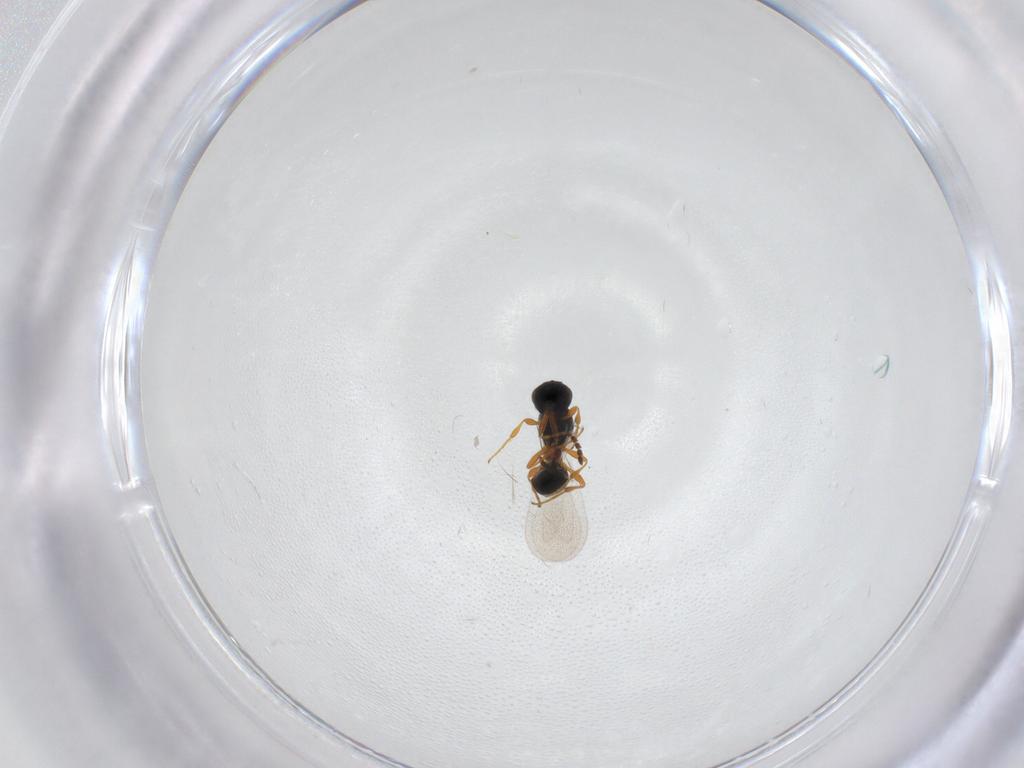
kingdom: Animalia
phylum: Arthropoda
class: Insecta
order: Hymenoptera
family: Platygastridae
